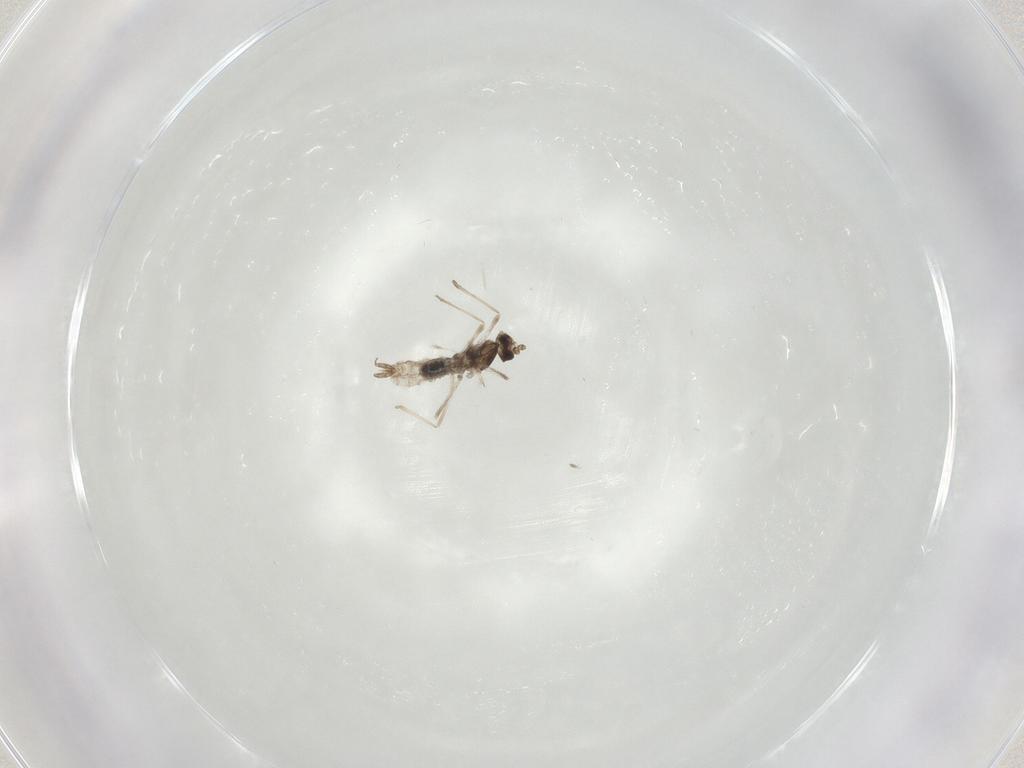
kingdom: Animalia
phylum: Arthropoda
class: Insecta
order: Diptera
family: Cecidomyiidae
